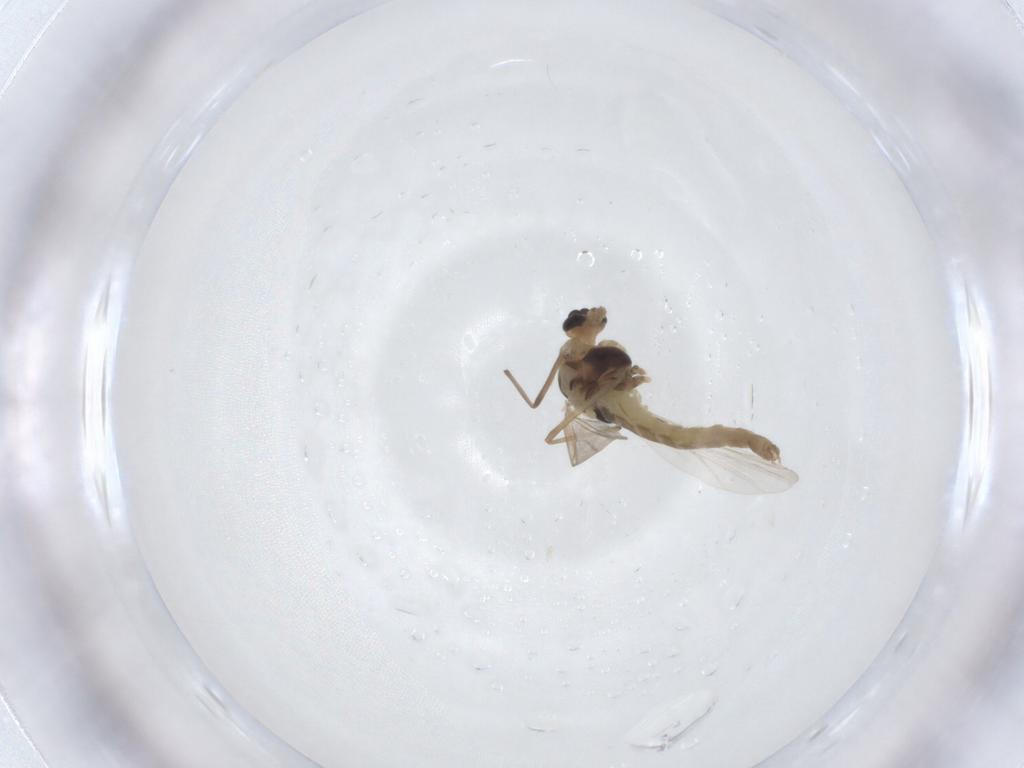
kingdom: Animalia
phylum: Arthropoda
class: Insecta
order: Diptera
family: Chironomidae
